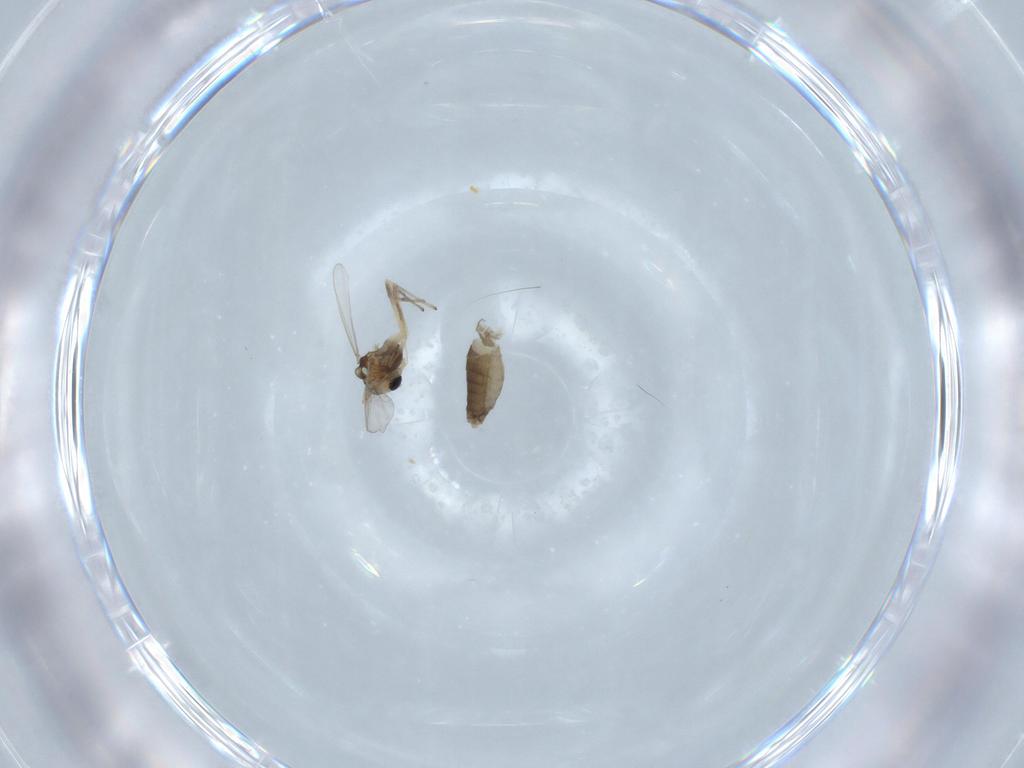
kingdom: Animalia
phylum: Arthropoda
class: Insecta
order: Diptera
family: Chironomidae
